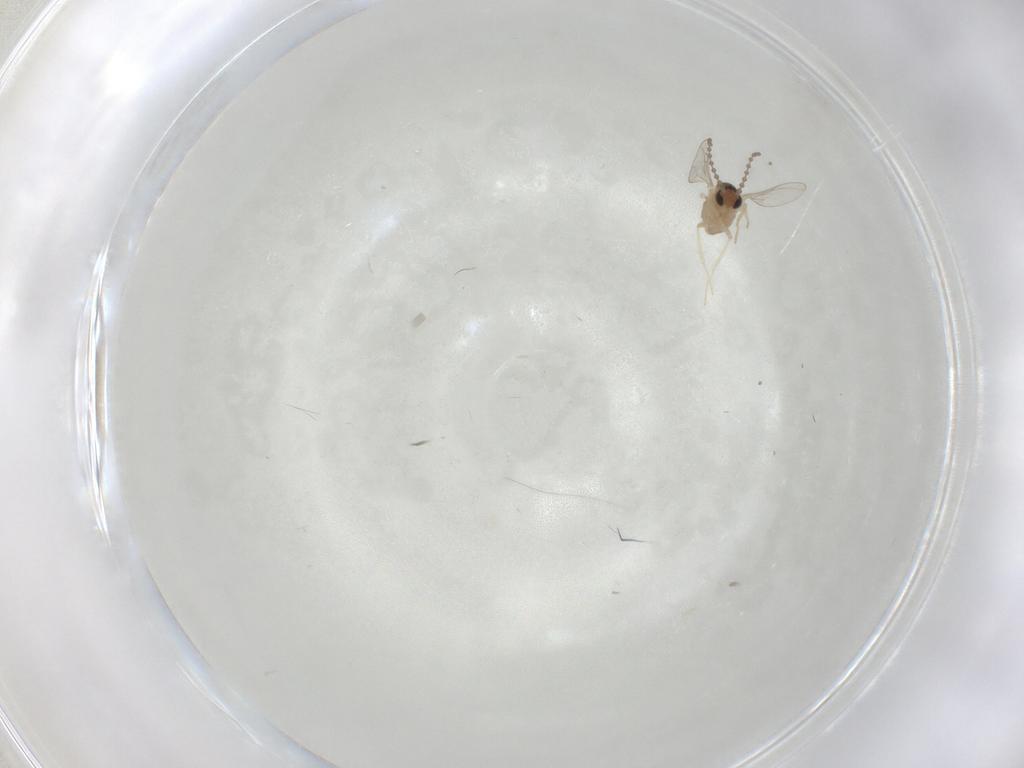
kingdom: Animalia
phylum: Arthropoda
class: Insecta
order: Diptera
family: Cecidomyiidae
